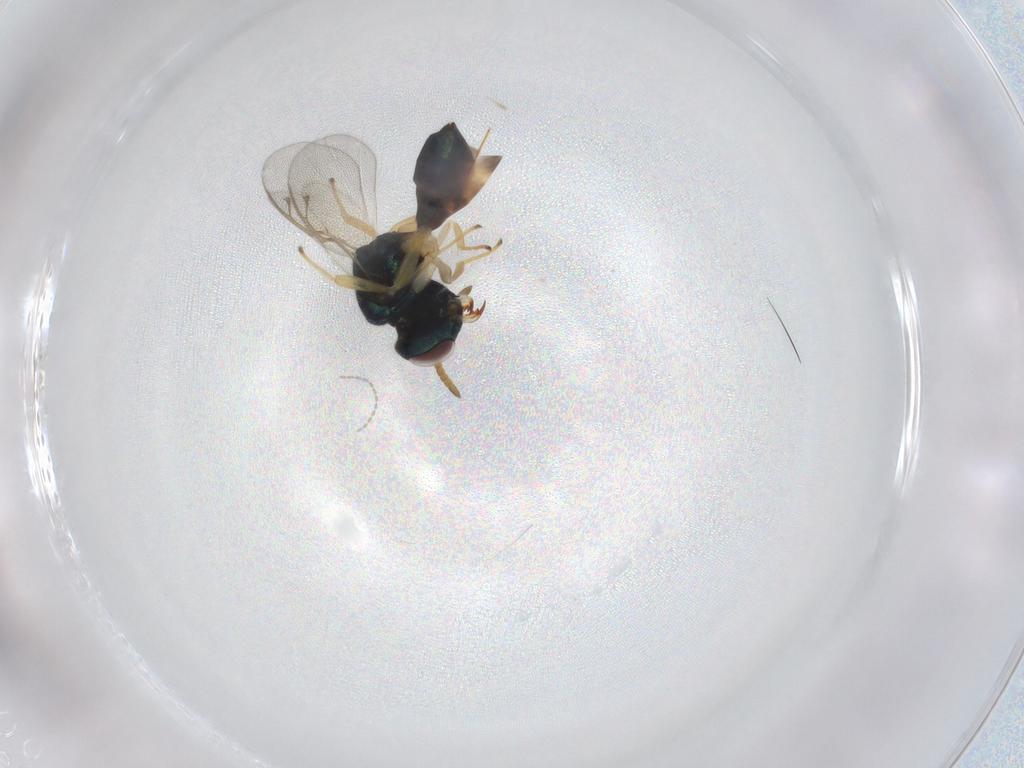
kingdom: Animalia
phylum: Arthropoda
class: Insecta
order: Hymenoptera
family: Pteromalidae
